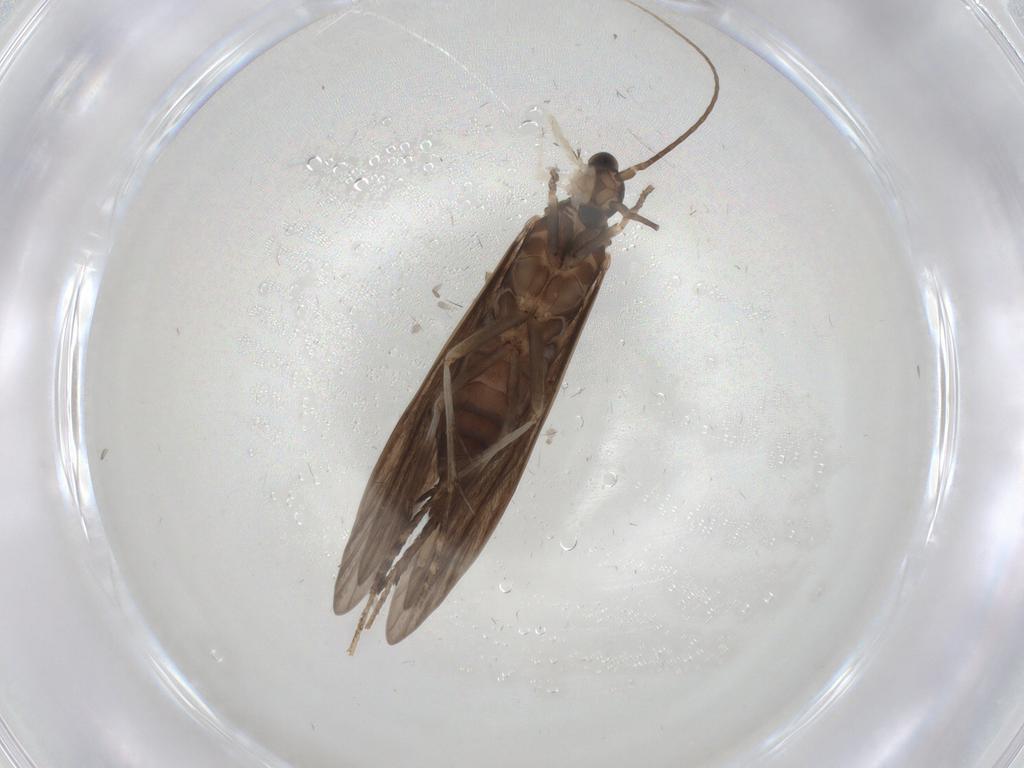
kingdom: Animalia
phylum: Arthropoda
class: Insecta
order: Trichoptera
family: Xiphocentronidae
